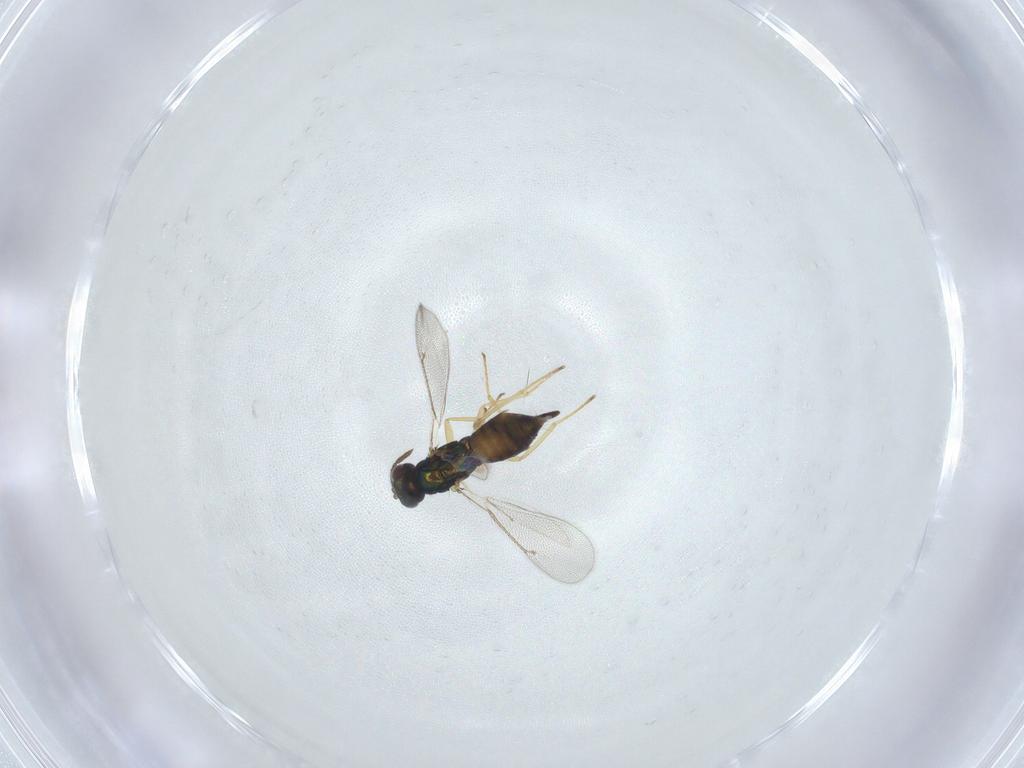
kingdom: Animalia
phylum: Arthropoda
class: Insecta
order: Hymenoptera
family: Eulophidae
